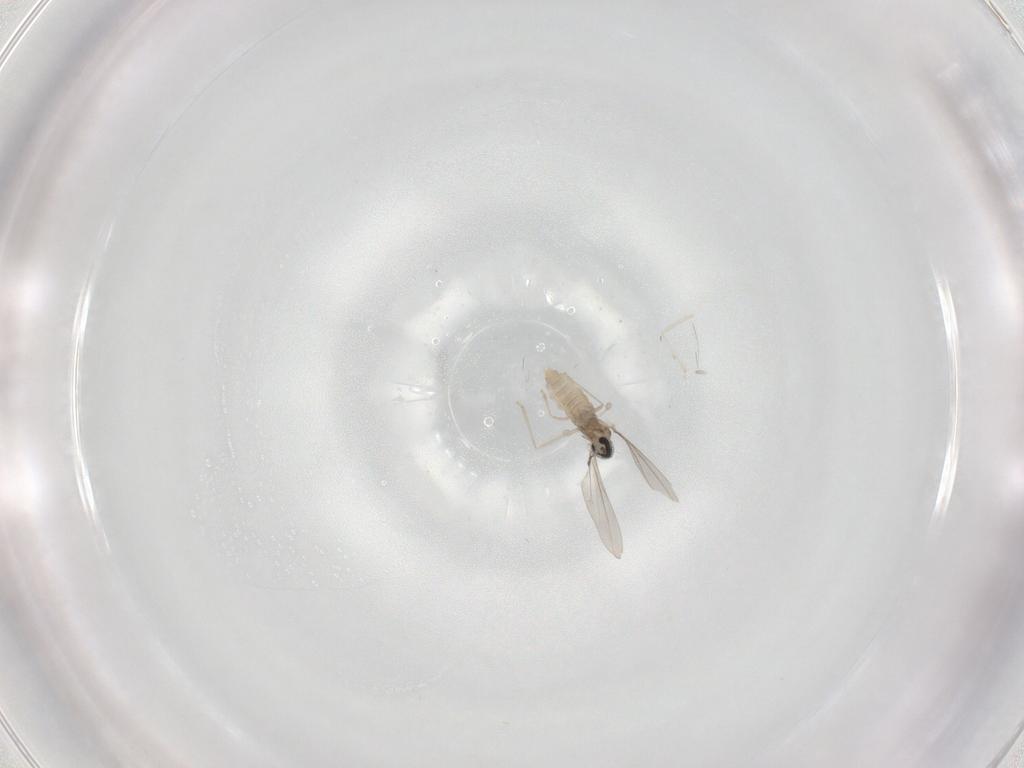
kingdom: Animalia
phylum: Arthropoda
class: Insecta
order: Diptera
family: Cecidomyiidae
